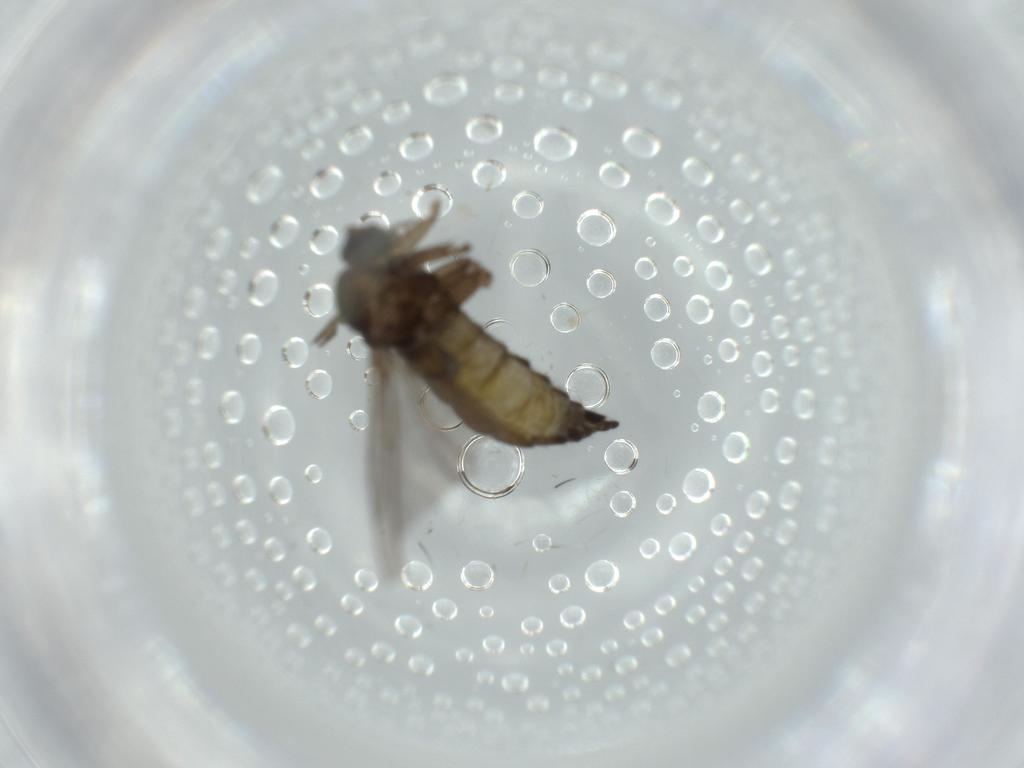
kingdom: Animalia
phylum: Arthropoda
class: Insecta
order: Diptera
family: Sciaridae
